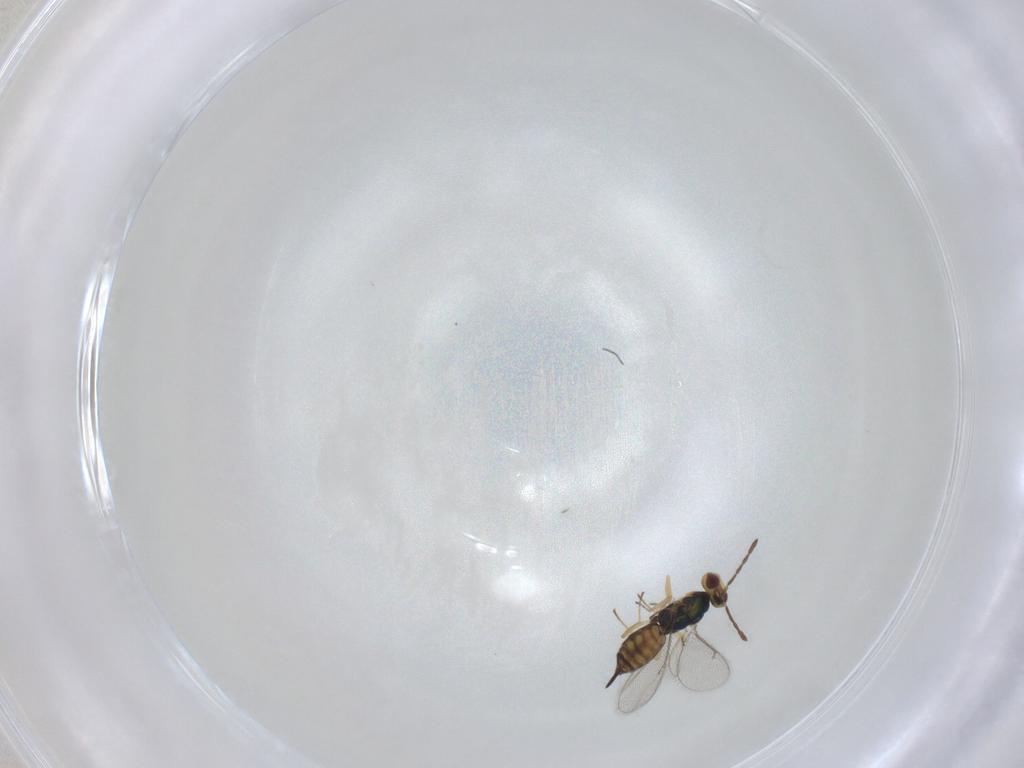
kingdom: Animalia
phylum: Arthropoda
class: Insecta
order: Hymenoptera
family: Eulophidae
